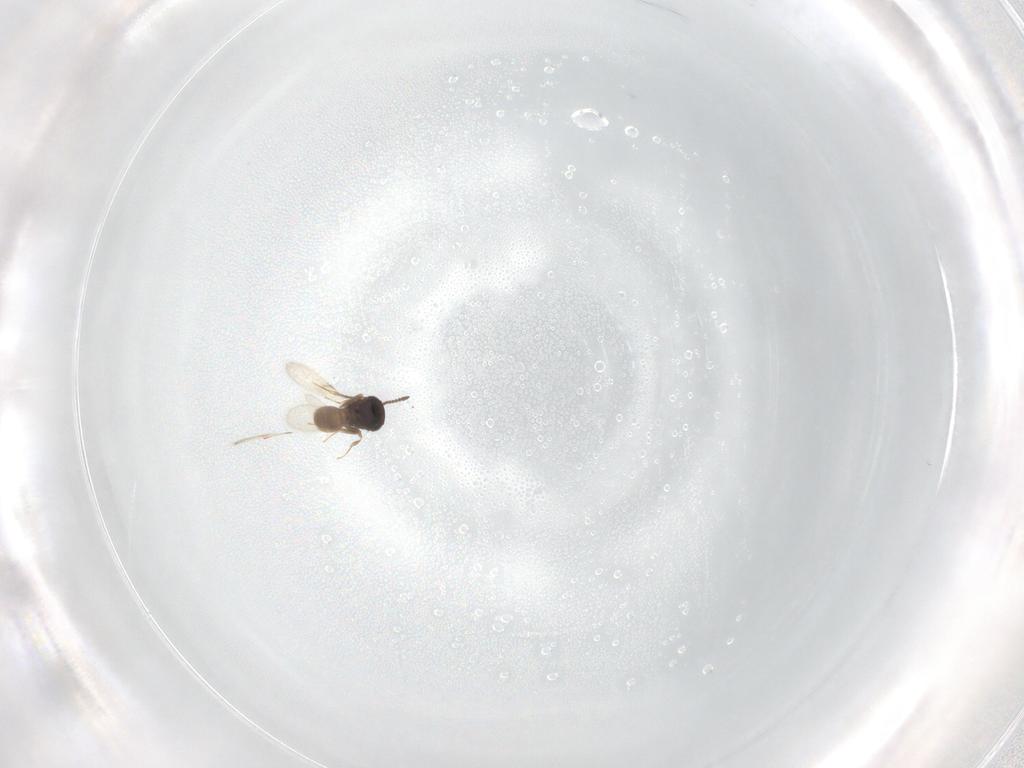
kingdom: Animalia
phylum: Arthropoda
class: Insecta
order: Hymenoptera
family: Scelionidae
